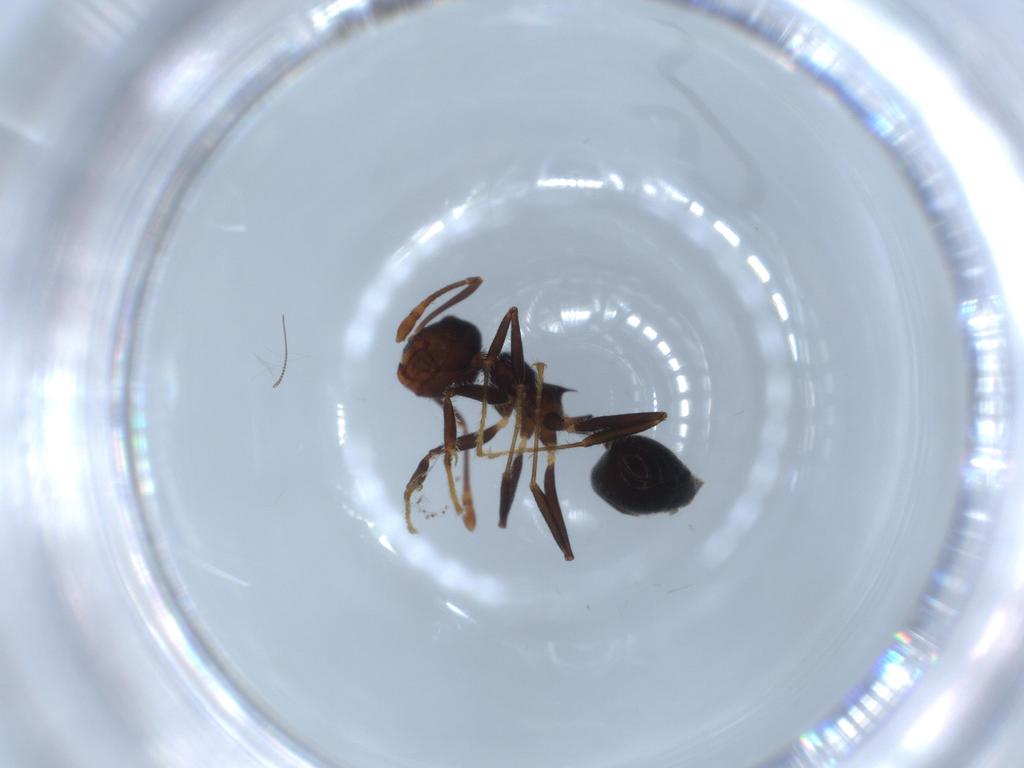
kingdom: Animalia
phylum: Arthropoda
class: Insecta
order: Hymenoptera
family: Formicidae
